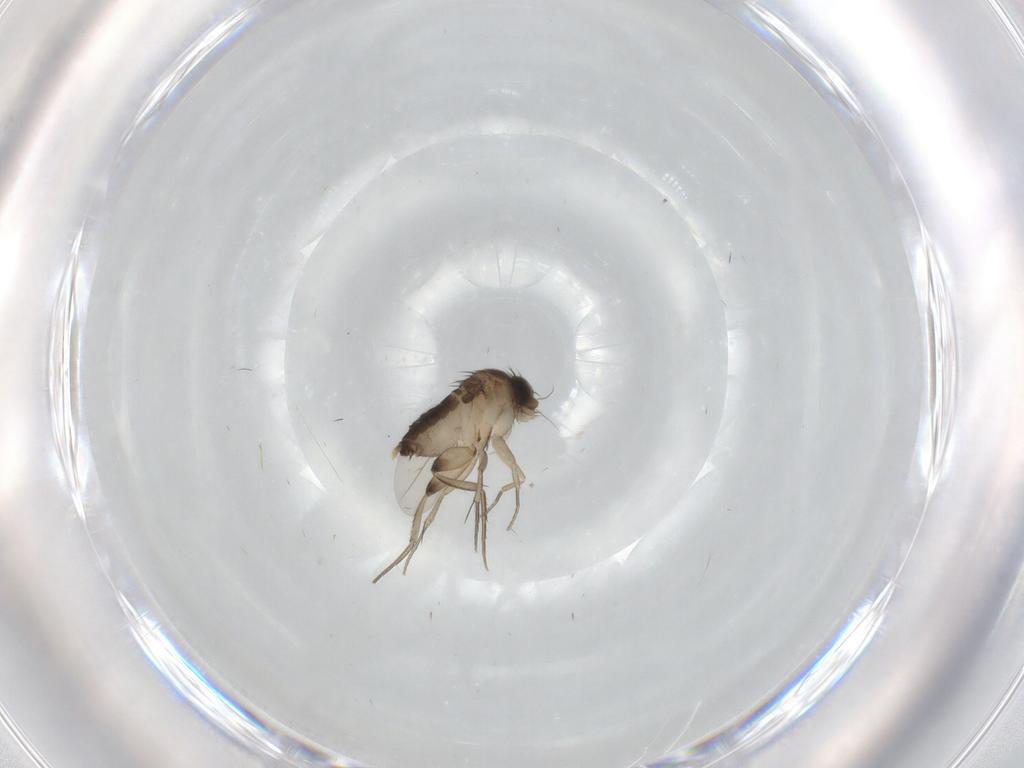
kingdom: Animalia
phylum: Arthropoda
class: Insecta
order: Diptera
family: Phoridae
